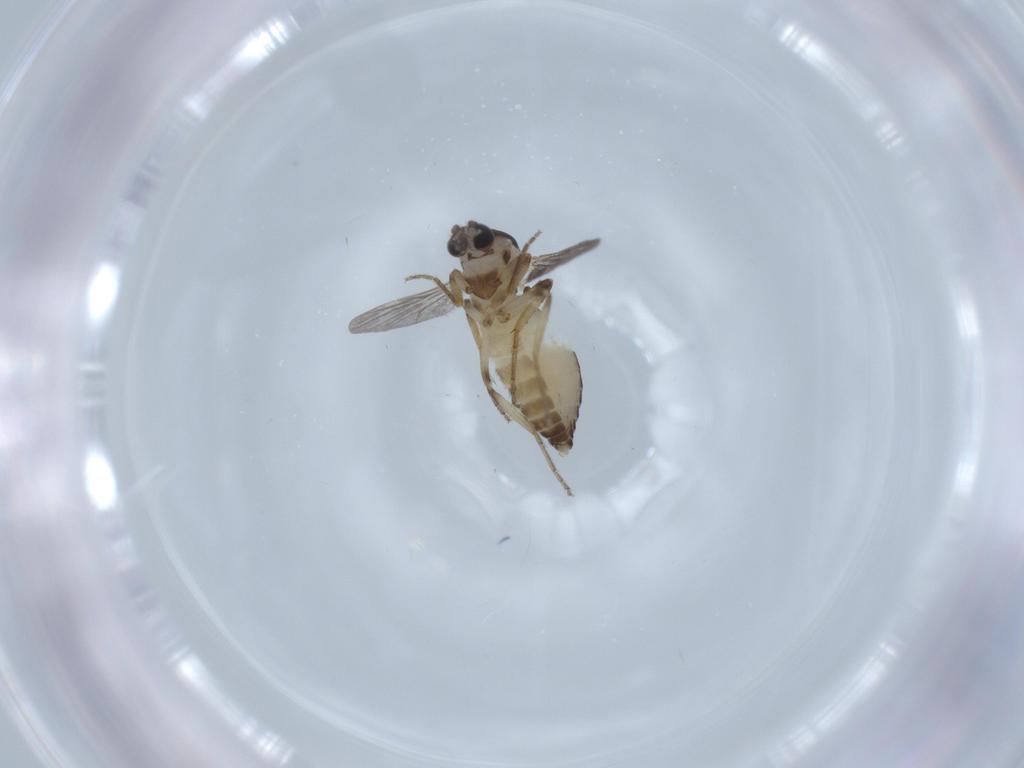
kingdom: Animalia
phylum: Arthropoda
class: Insecta
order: Diptera
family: Ceratopogonidae
